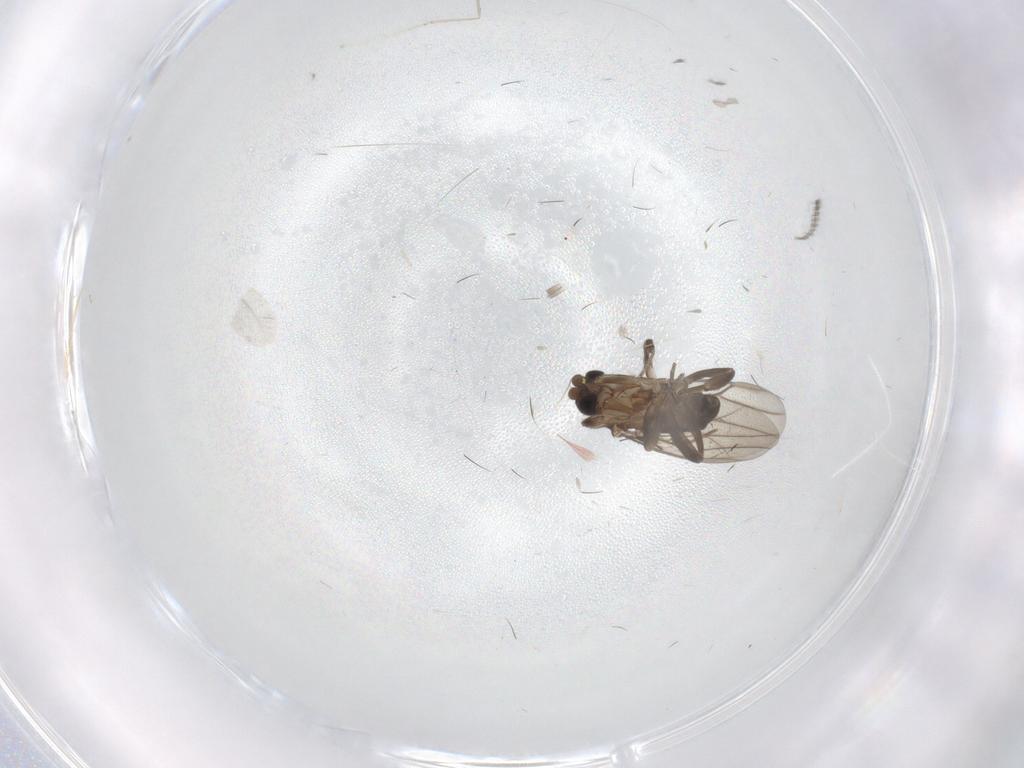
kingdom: Animalia
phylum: Arthropoda
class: Insecta
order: Diptera
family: Phoridae
